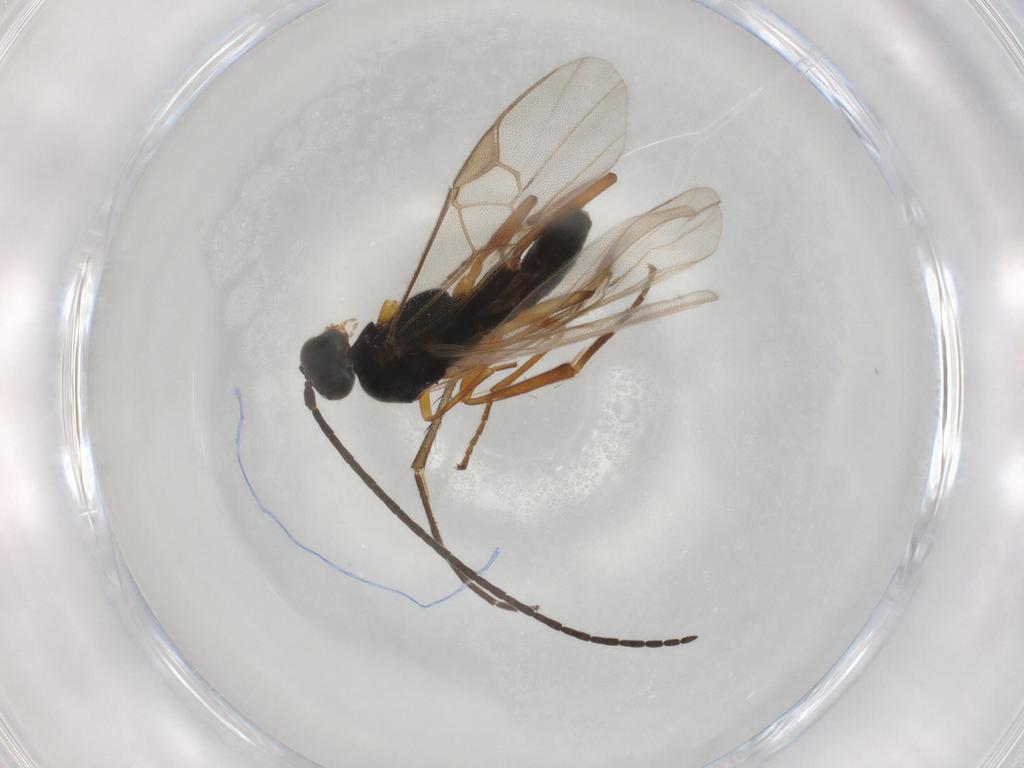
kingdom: Animalia
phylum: Arthropoda
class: Insecta
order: Hymenoptera
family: Braconidae
